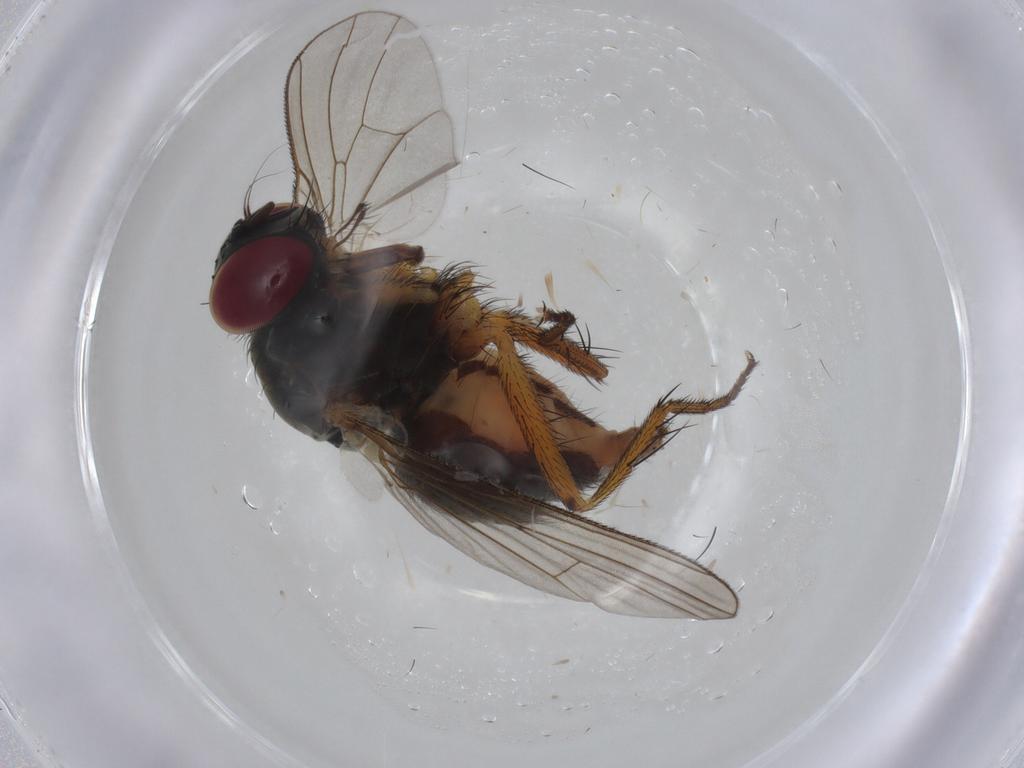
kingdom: Animalia
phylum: Arthropoda
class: Insecta
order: Diptera
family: Muscidae
